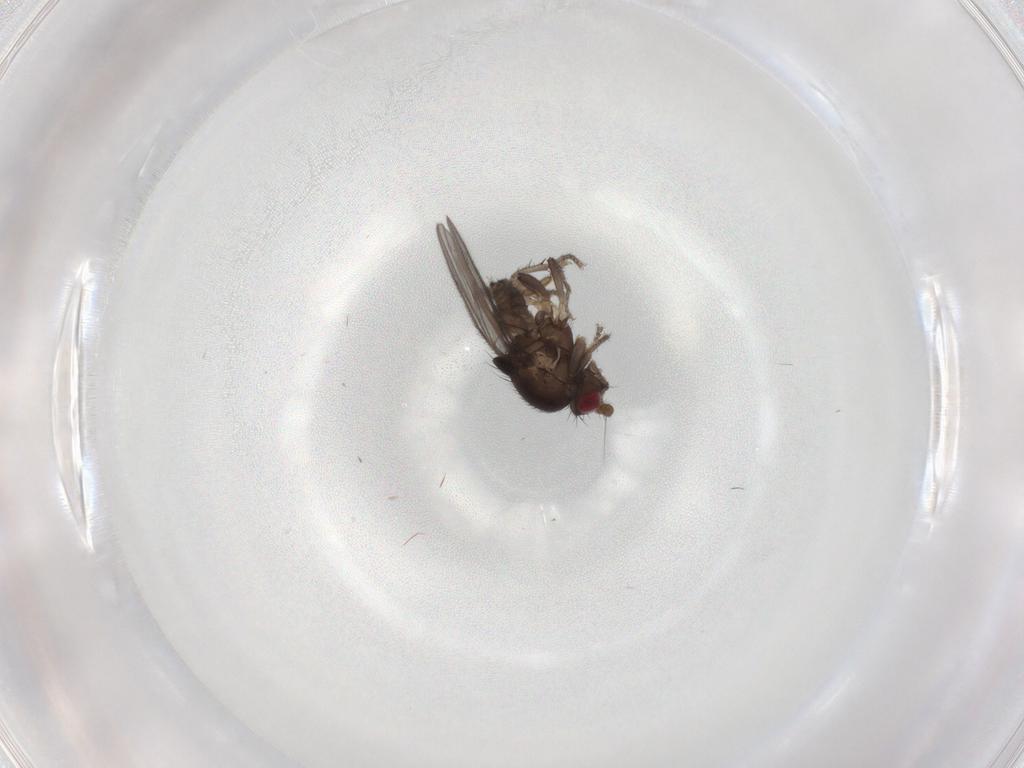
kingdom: Animalia
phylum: Arthropoda
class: Insecta
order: Diptera
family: Sphaeroceridae
